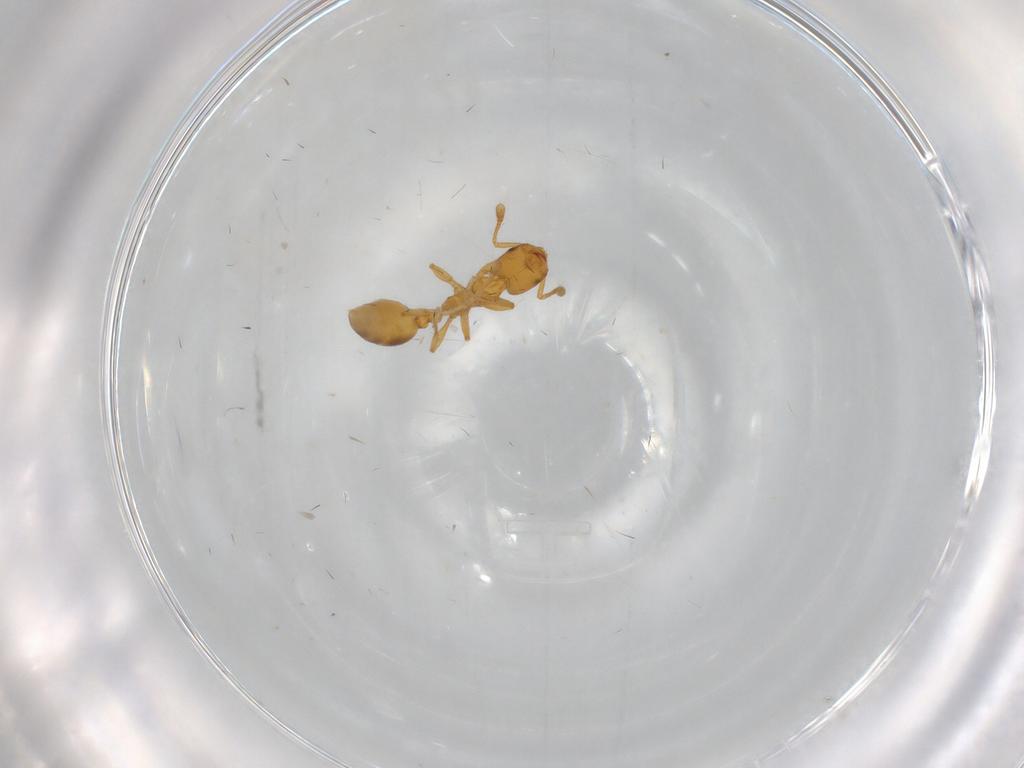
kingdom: Animalia
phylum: Arthropoda
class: Insecta
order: Hymenoptera
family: Formicidae
